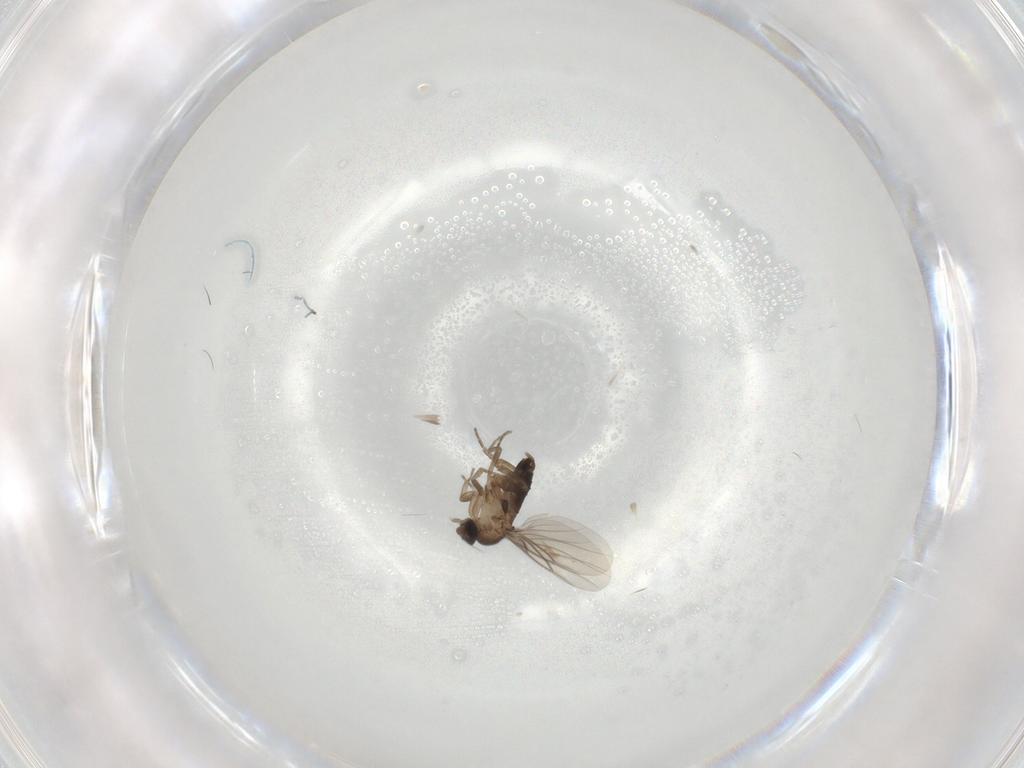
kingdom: Animalia
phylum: Arthropoda
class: Insecta
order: Diptera
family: Phoridae
